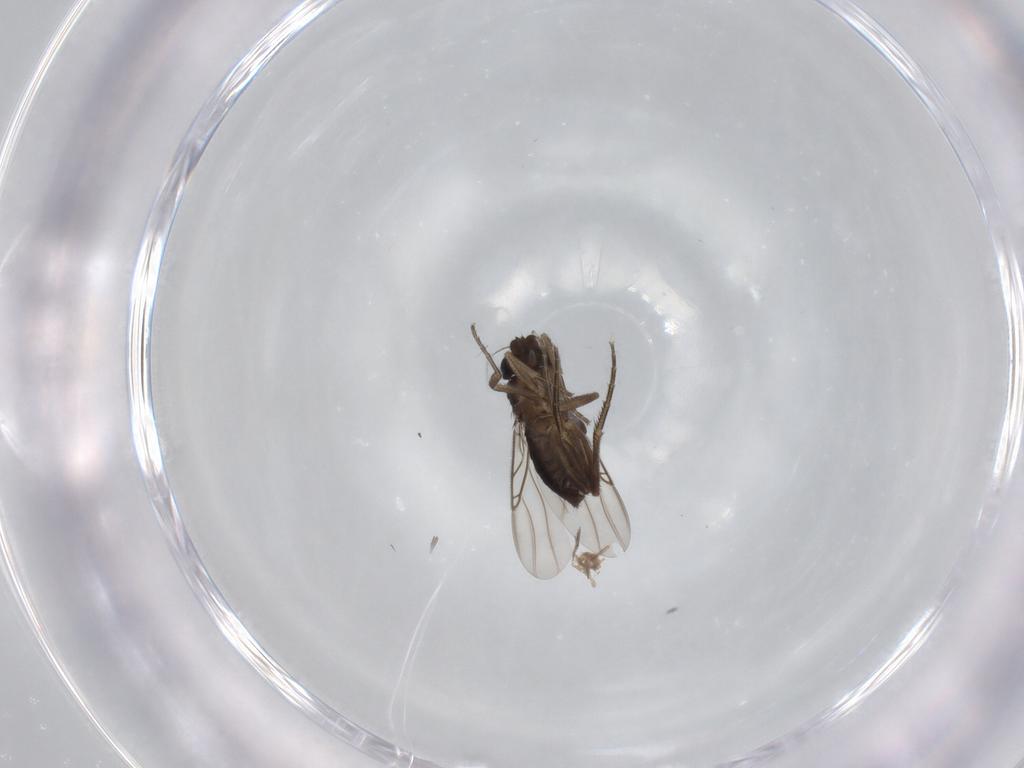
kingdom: Animalia
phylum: Arthropoda
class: Insecta
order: Diptera
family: Phoridae
